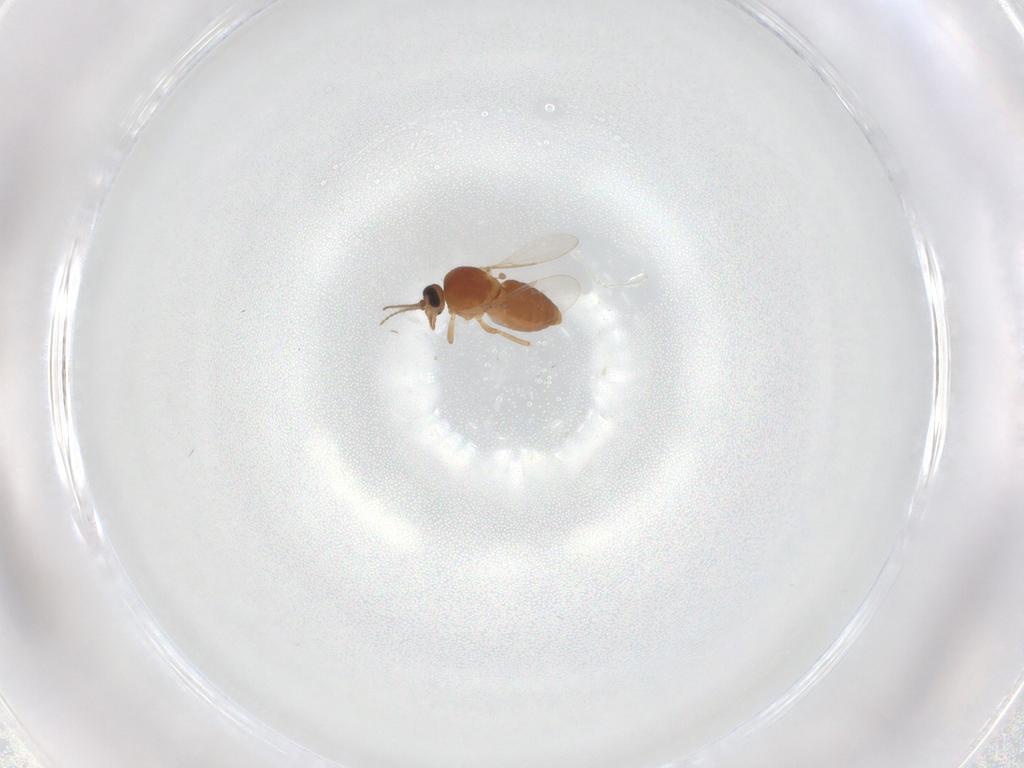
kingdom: Animalia
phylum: Arthropoda
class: Insecta
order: Diptera
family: Ceratopogonidae
